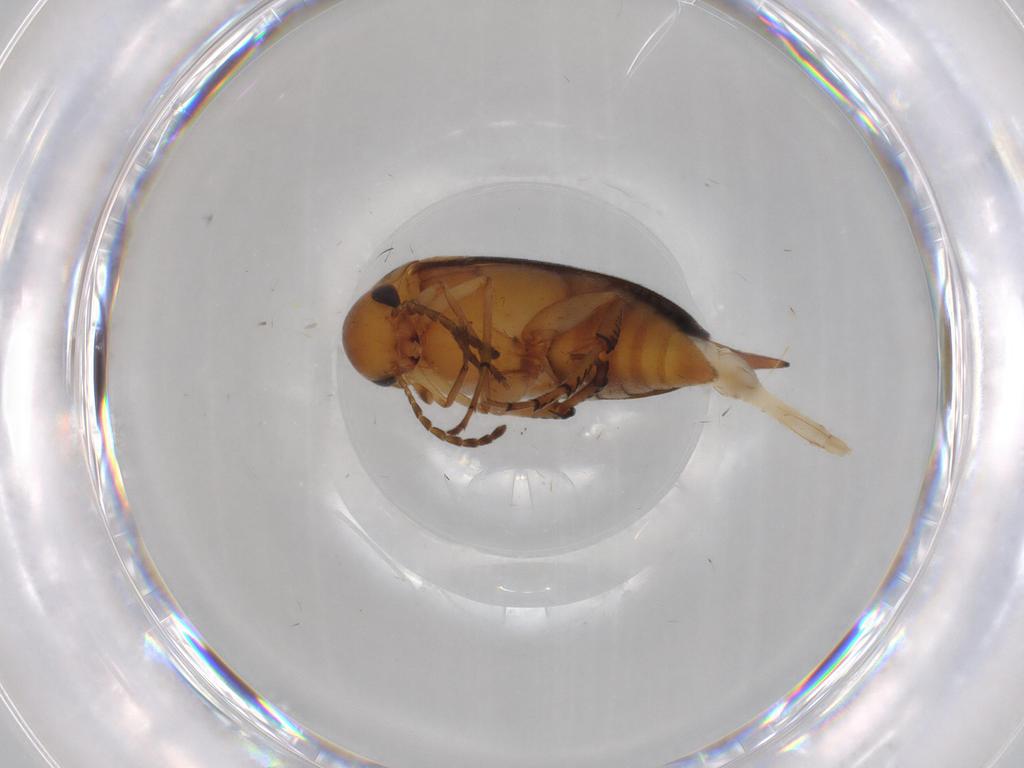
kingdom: Animalia
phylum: Arthropoda
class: Insecta
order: Coleoptera
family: Mordellidae
